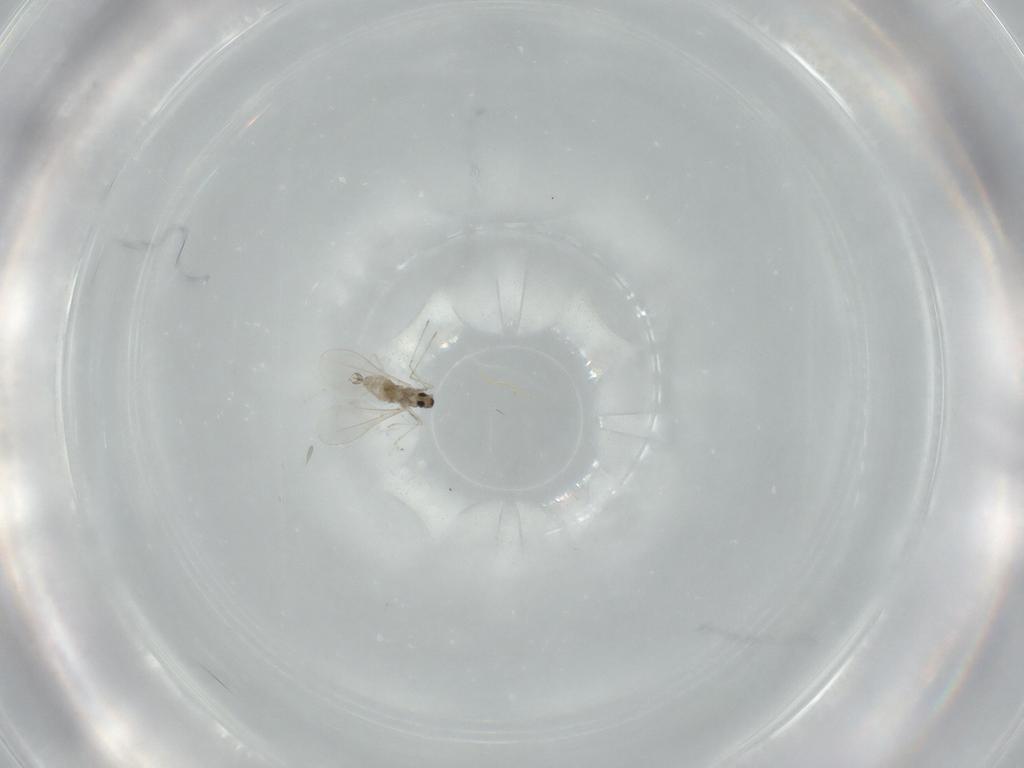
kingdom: Animalia
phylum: Arthropoda
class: Insecta
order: Diptera
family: Cecidomyiidae
